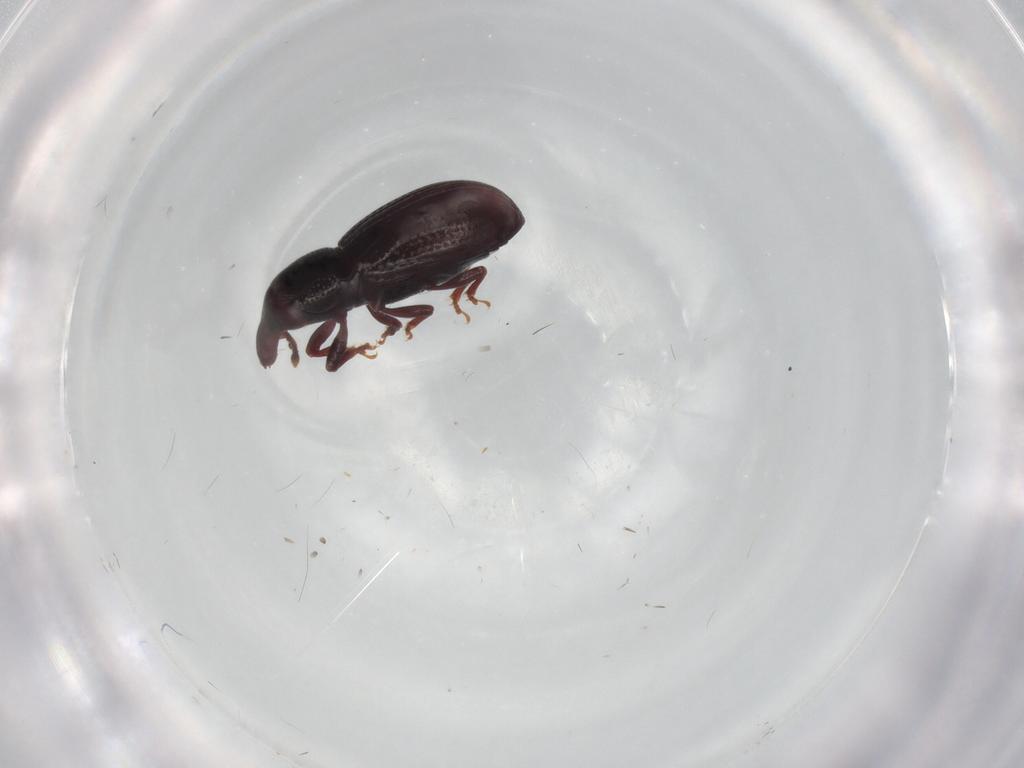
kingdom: Animalia
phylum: Arthropoda
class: Insecta
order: Coleoptera
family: Curculionidae
